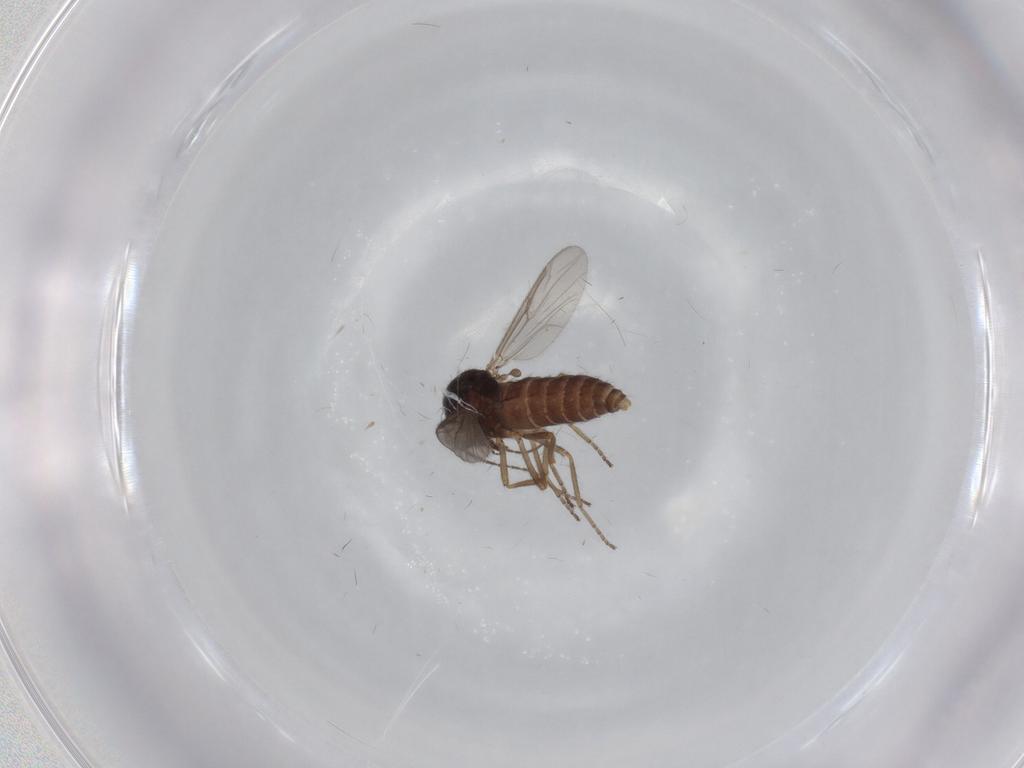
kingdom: Animalia
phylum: Arthropoda
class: Insecta
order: Diptera
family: Ceratopogonidae
